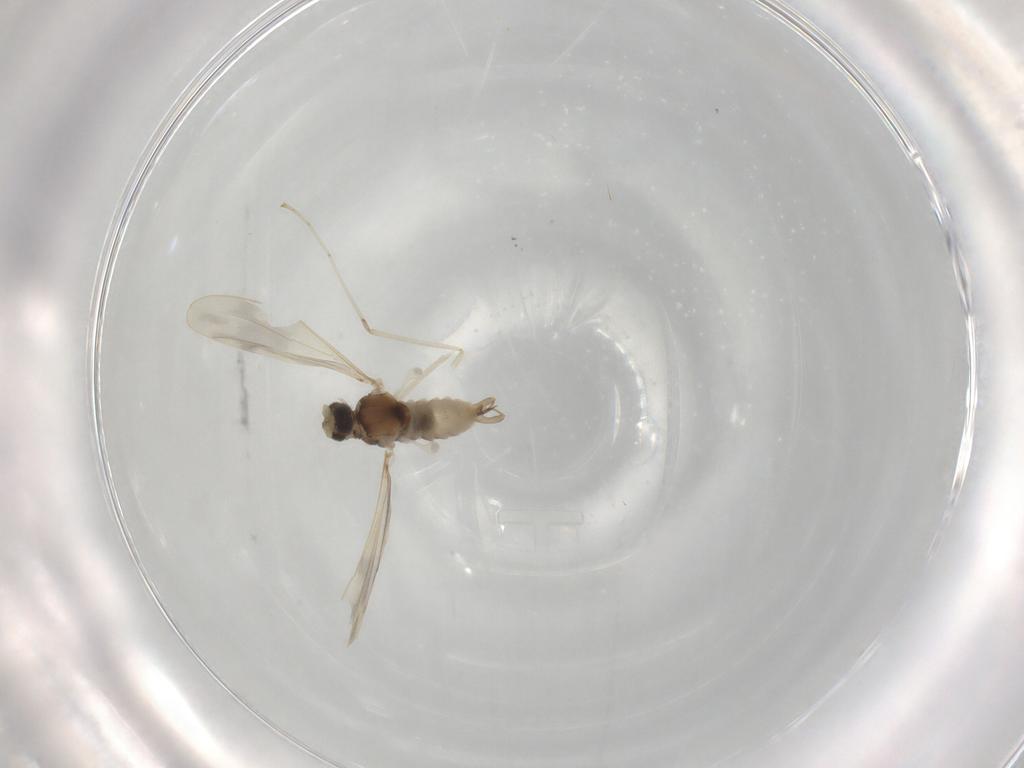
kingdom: Animalia
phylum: Arthropoda
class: Insecta
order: Diptera
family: Cecidomyiidae
